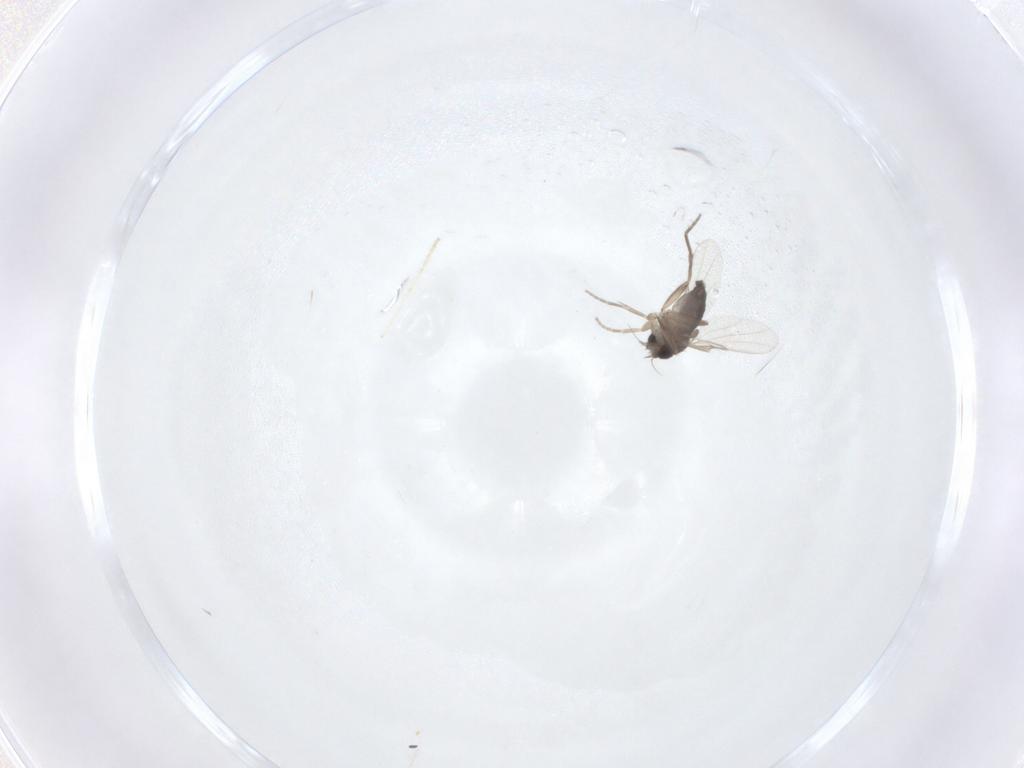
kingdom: Animalia
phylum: Arthropoda
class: Insecta
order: Diptera
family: Phoridae
